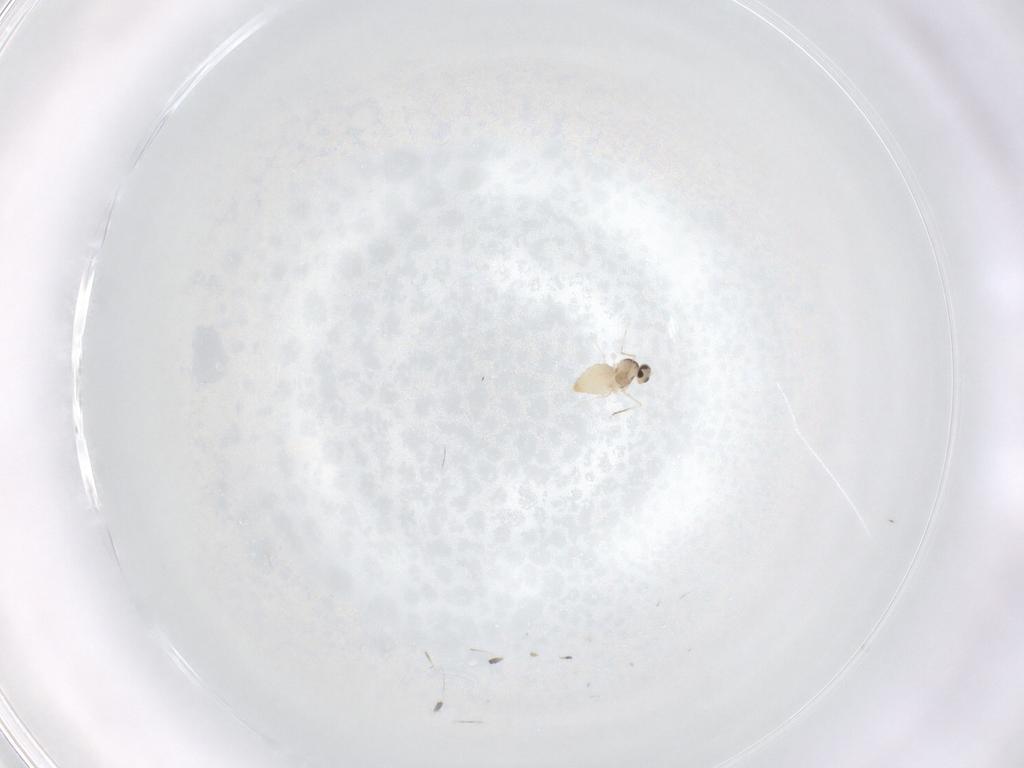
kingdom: Animalia
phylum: Arthropoda
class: Insecta
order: Diptera
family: Cecidomyiidae
